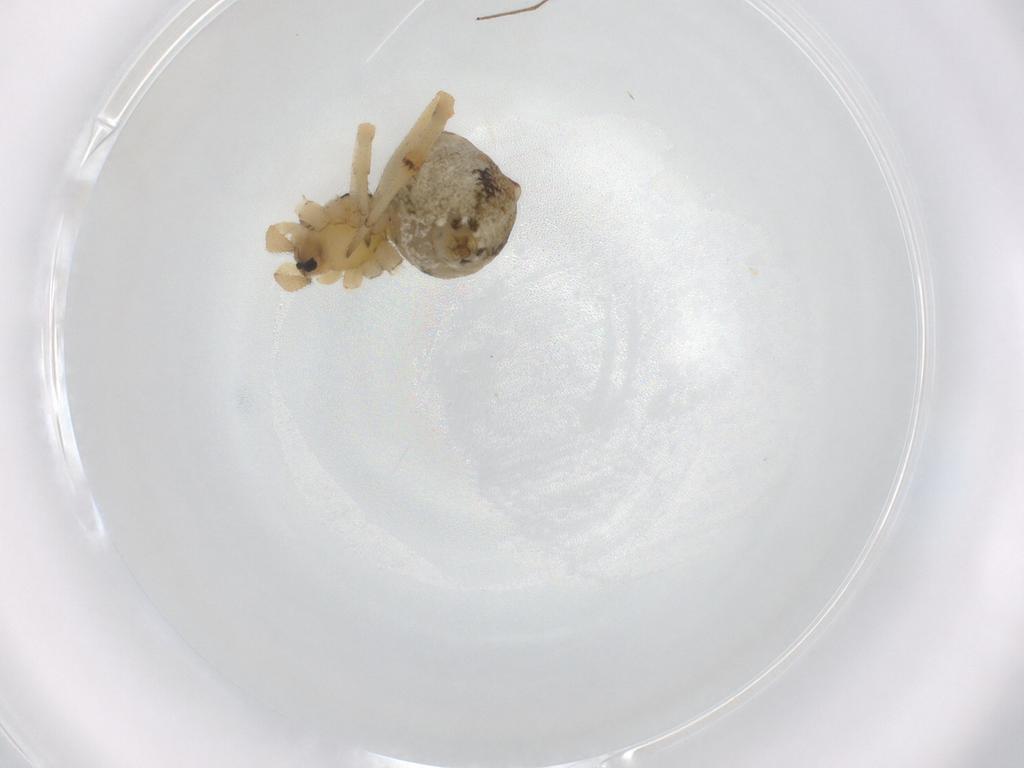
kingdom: Animalia
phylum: Arthropoda
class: Arachnida
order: Araneae
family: Theridiidae
